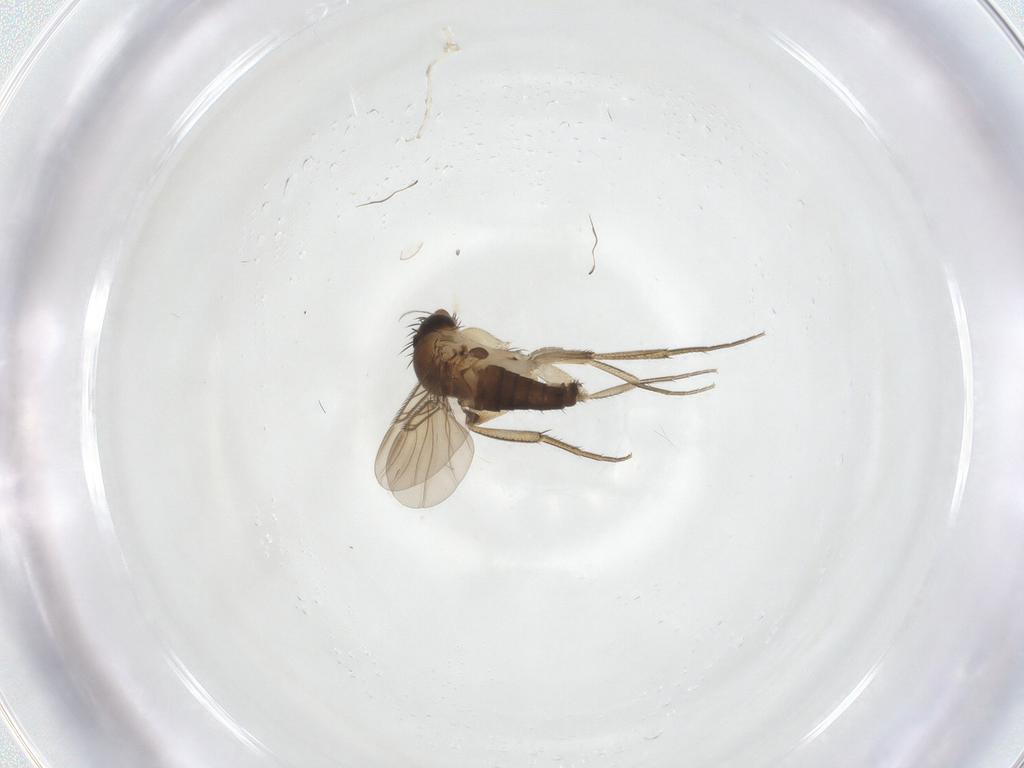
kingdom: Animalia
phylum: Arthropoda
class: Insecta
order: Diptera
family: Phoridae
